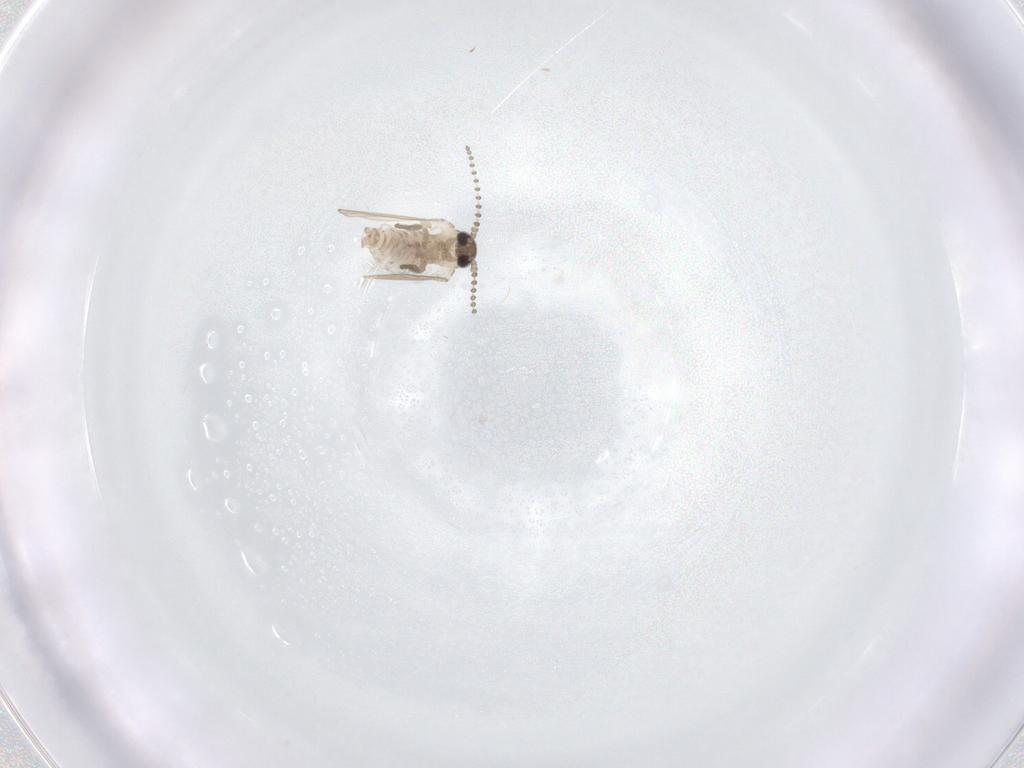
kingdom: Animalia
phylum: Arthropoda
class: Insecta
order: Diptera
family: Psychodidae
